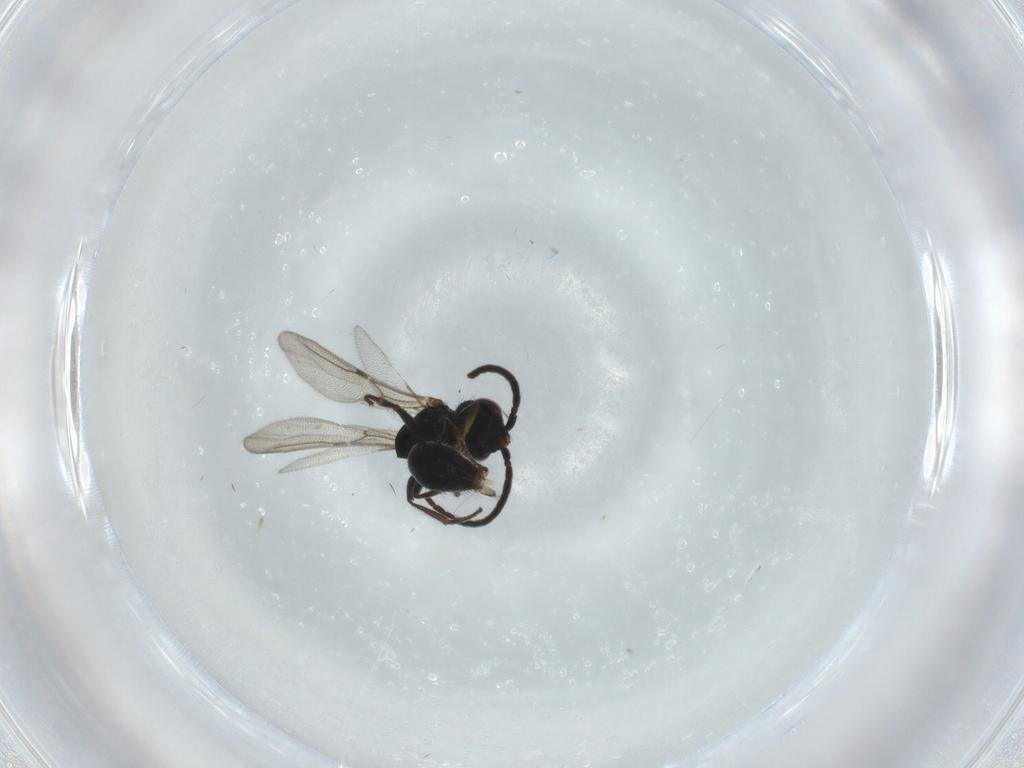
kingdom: Animalia
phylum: Arthropoda
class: Insecta
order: Hymenoptera
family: Bethylidae
